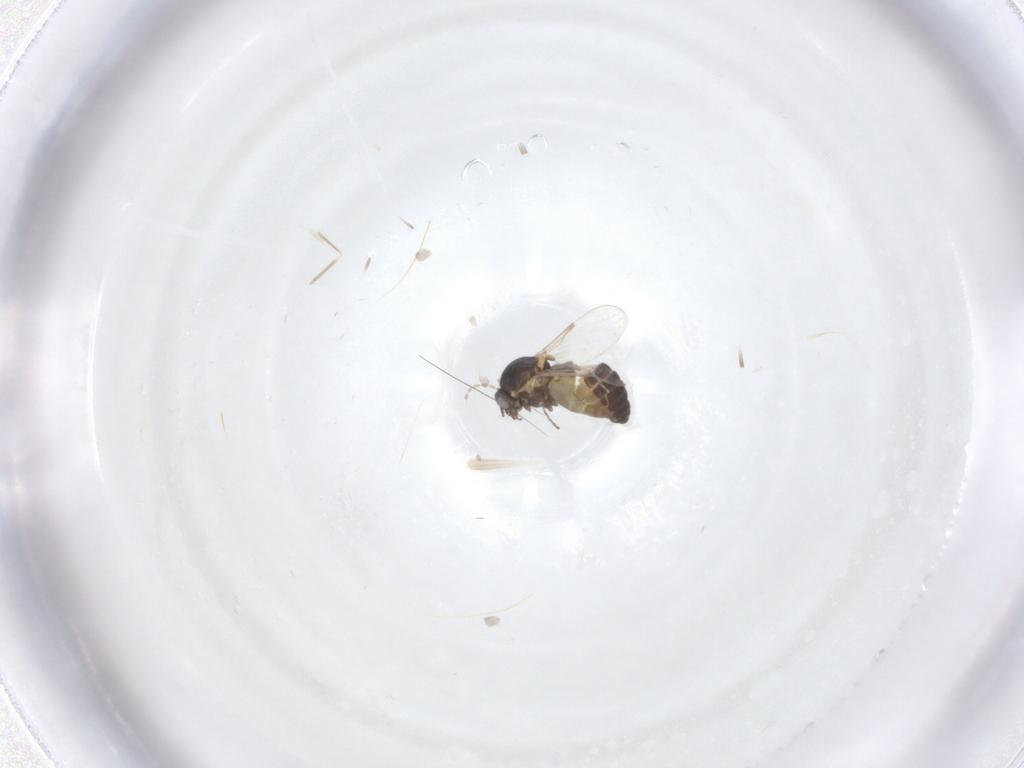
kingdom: Animalia
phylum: Arthropoda
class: Insecta
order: Diptera
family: Ceratopogonidae
